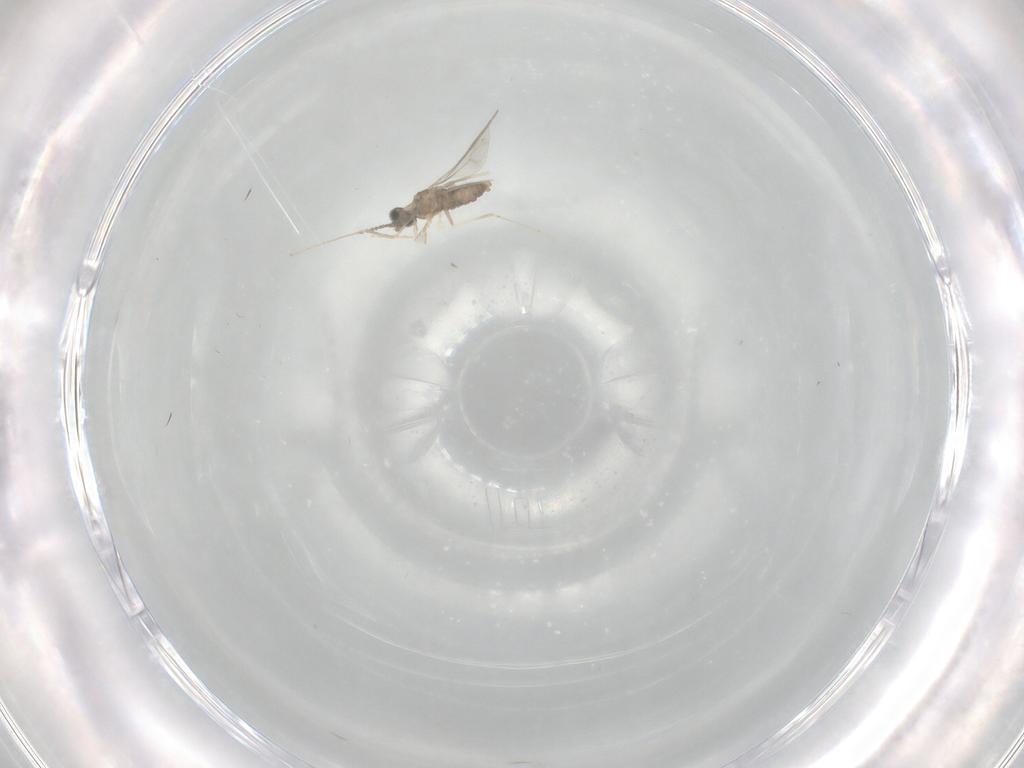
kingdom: Animalia
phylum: Arthropoda
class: Insecta
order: Diptera
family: Cecidomyiidae
